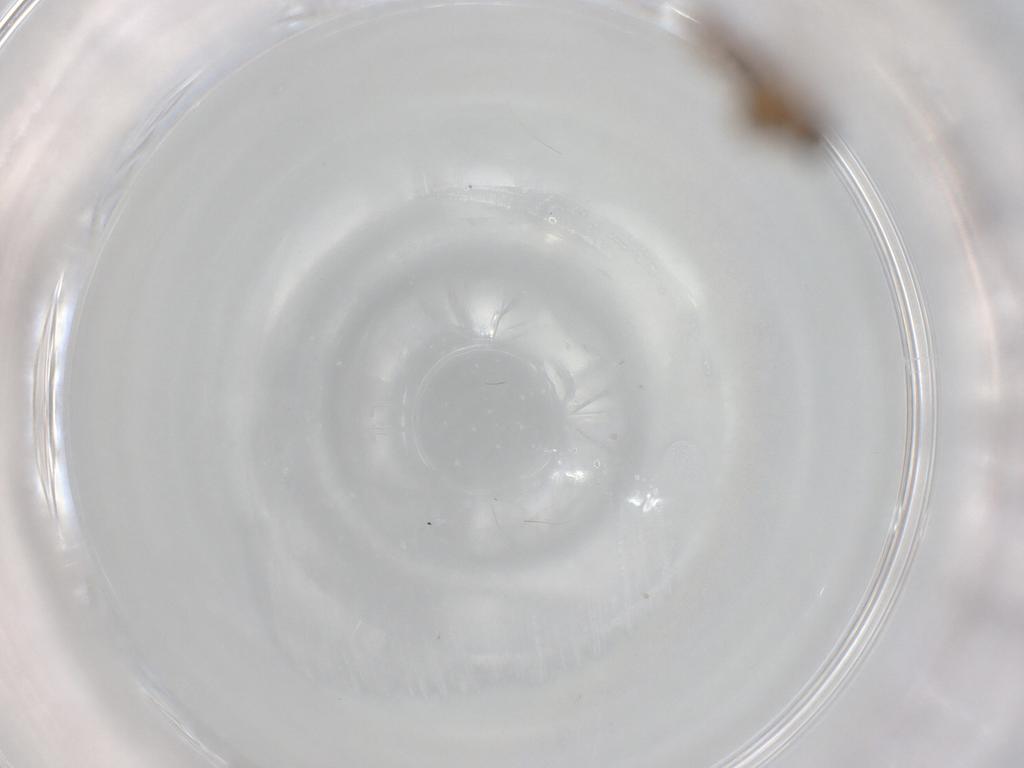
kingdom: Animalia
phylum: Arthropoda
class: Insecta
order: Diptera
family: Cecidomyiidae
